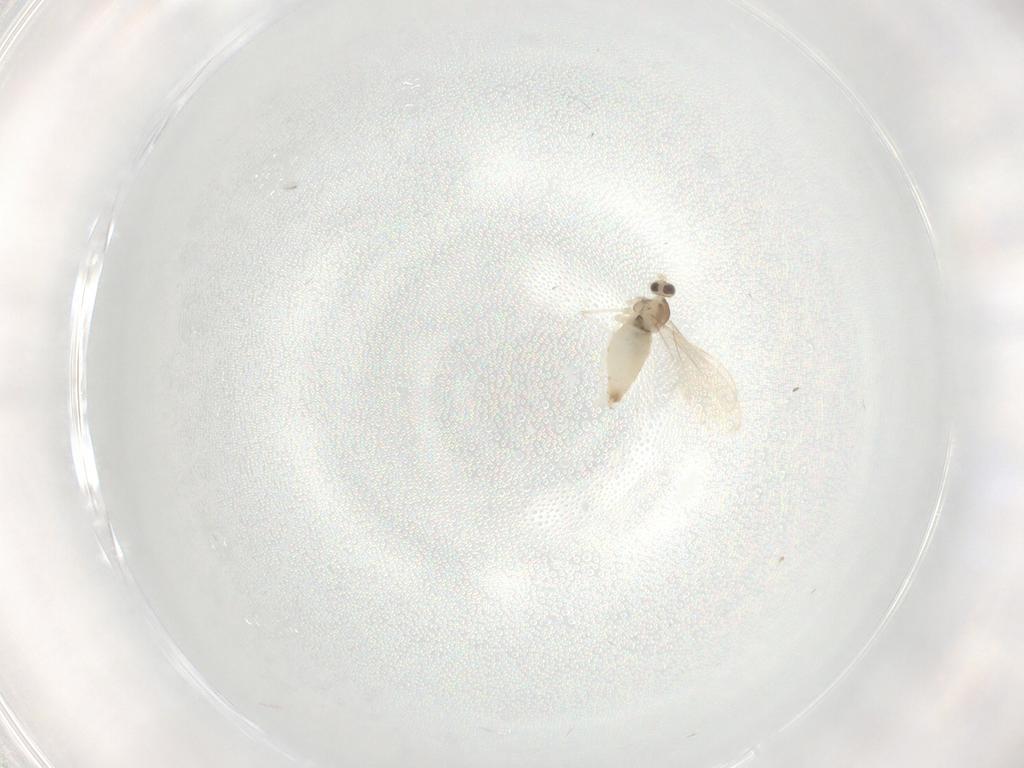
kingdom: Animalia
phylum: Arthropoda
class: Insecta
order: Diptera
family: Cecidomyiidae
